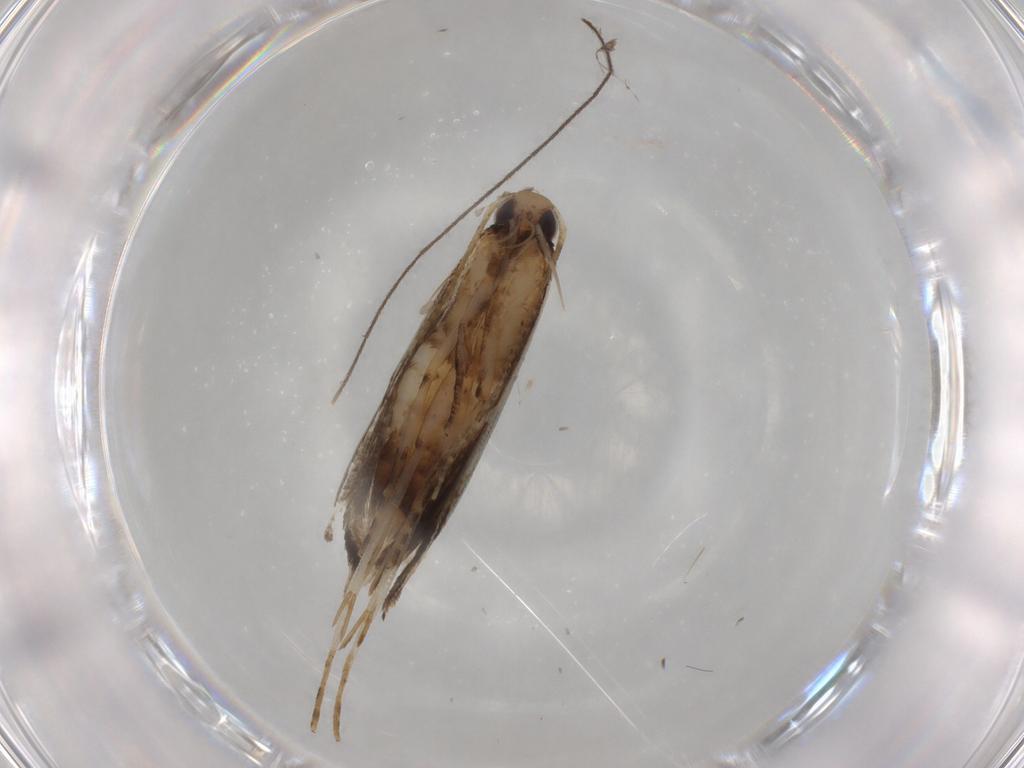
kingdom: Animalia
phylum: Arthropoda
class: Insecta
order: Lepidoptera
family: Gelechiidae
